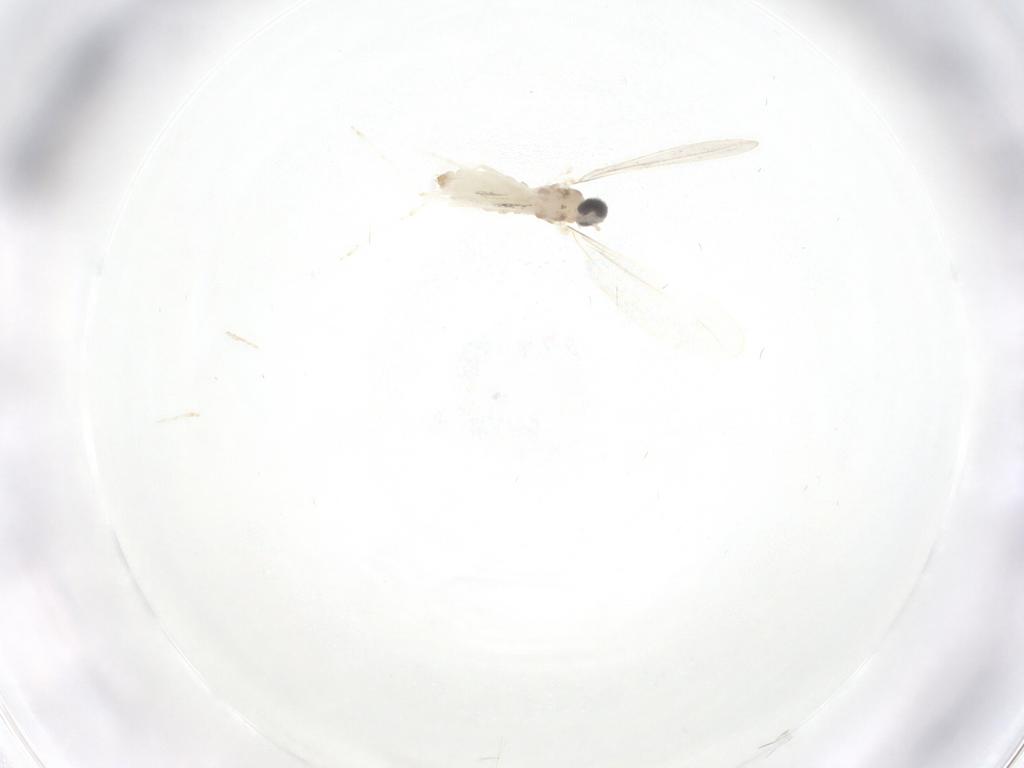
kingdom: Animalia
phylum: Arthropoda
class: Insecta
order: Diptera
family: Cecidomyiidae
